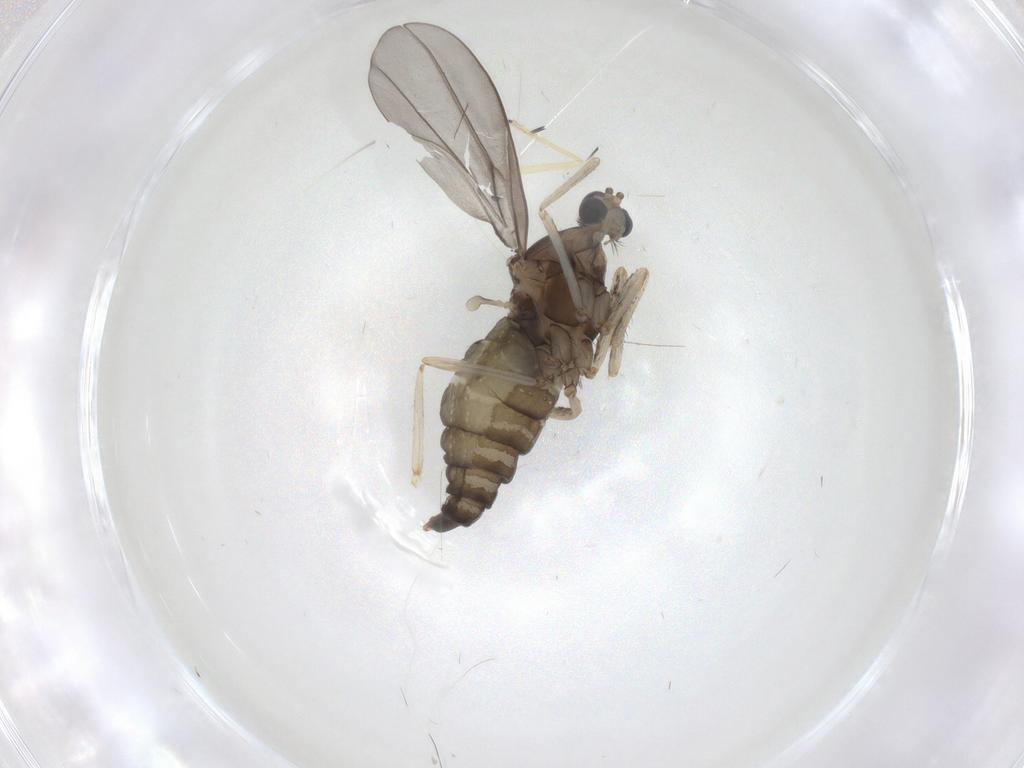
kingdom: Animalia
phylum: Arthropoda
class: Insecta
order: Diptera
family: Cecidomyiidae
